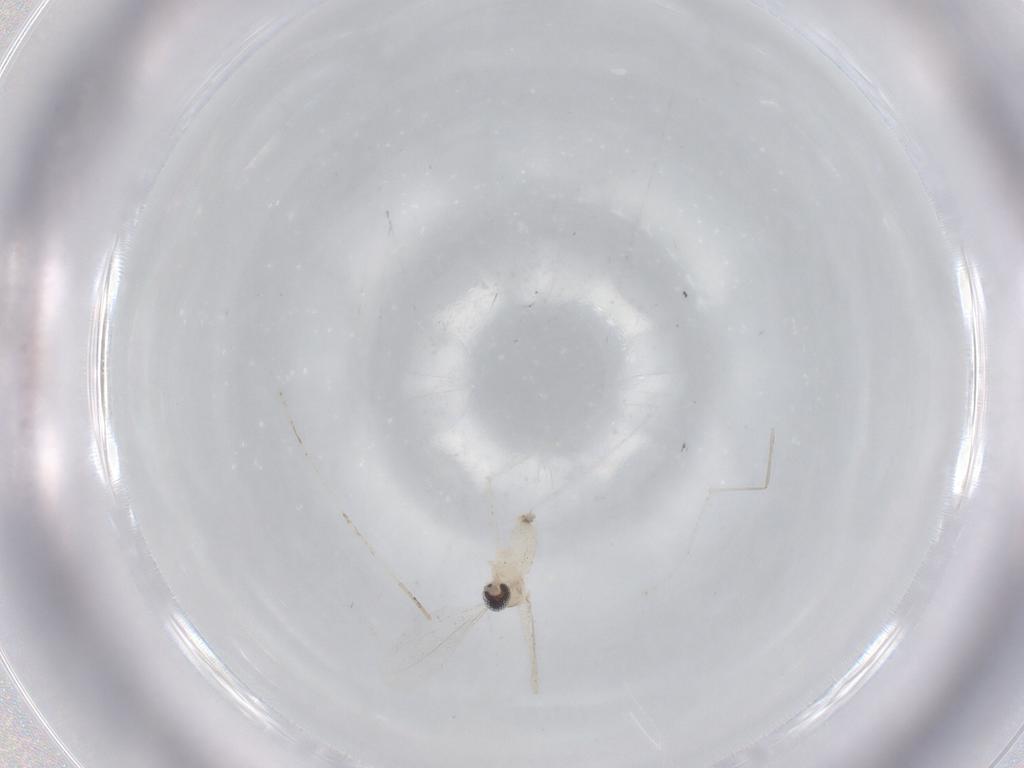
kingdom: Animalia
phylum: Arthropoda
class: Insecta
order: Diptera
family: Cecidomyiidae
